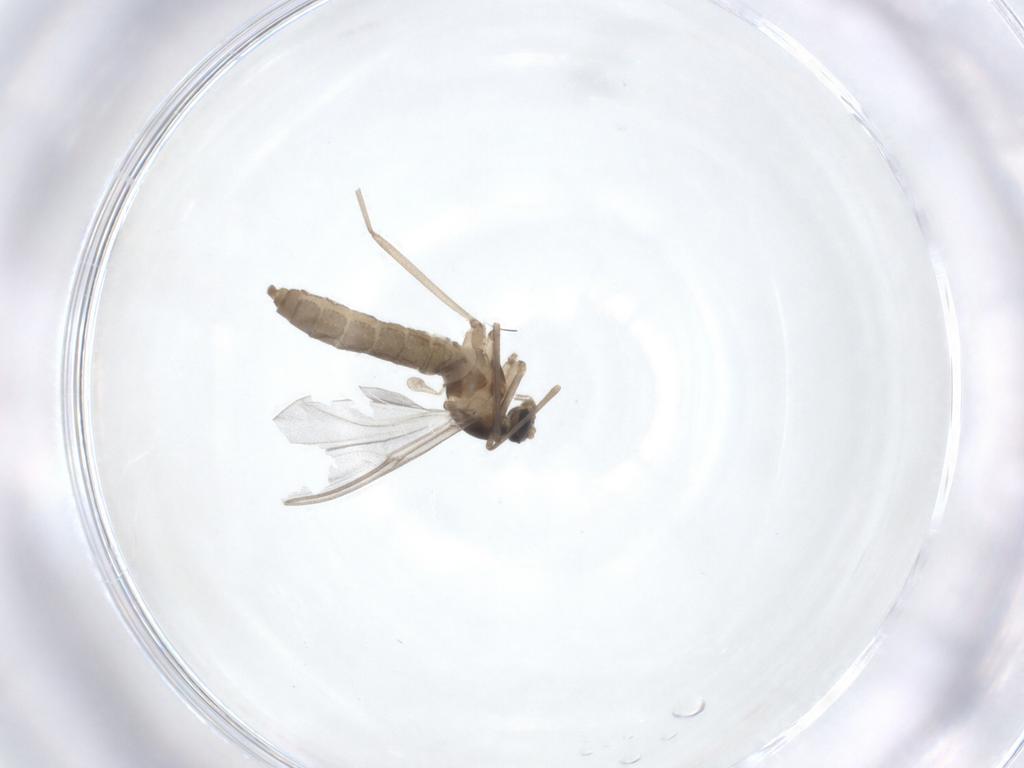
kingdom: Animalia
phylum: Arthropoda
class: Insecta
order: Diptera
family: Cecidomyiidae
